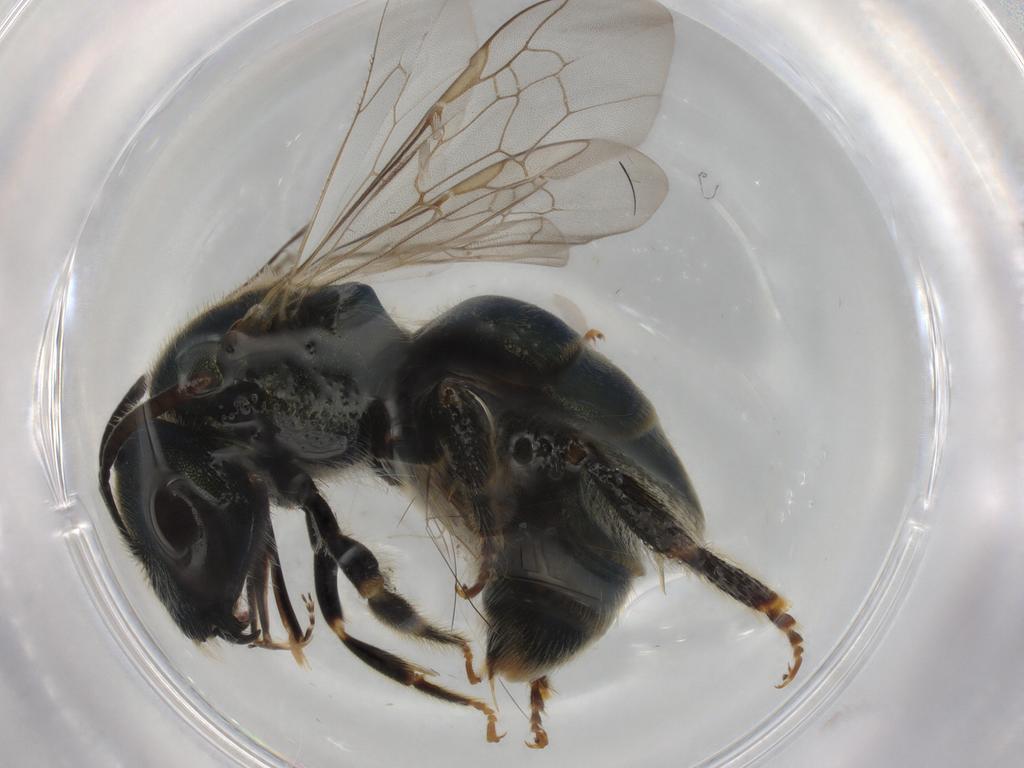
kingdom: Animalia
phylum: Arthropoda
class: Insecta
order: Hymenoptera
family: Halictidae
